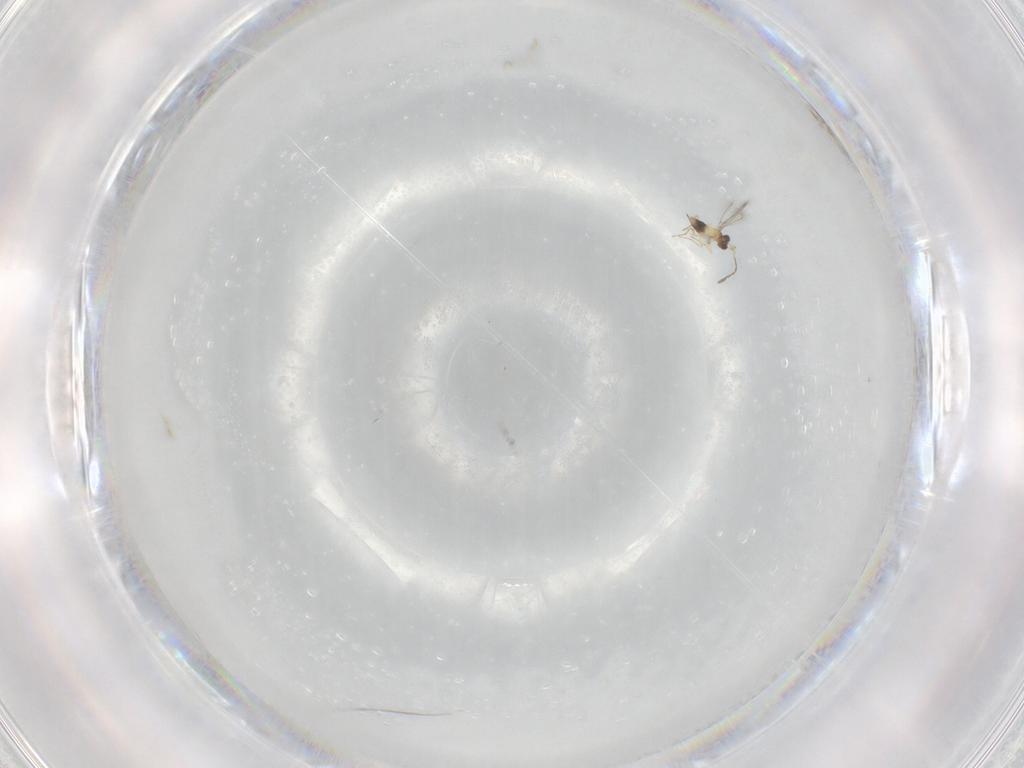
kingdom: Animalia
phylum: Arthropoda
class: Insecta
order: Hymenoptera
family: Mymaridae
